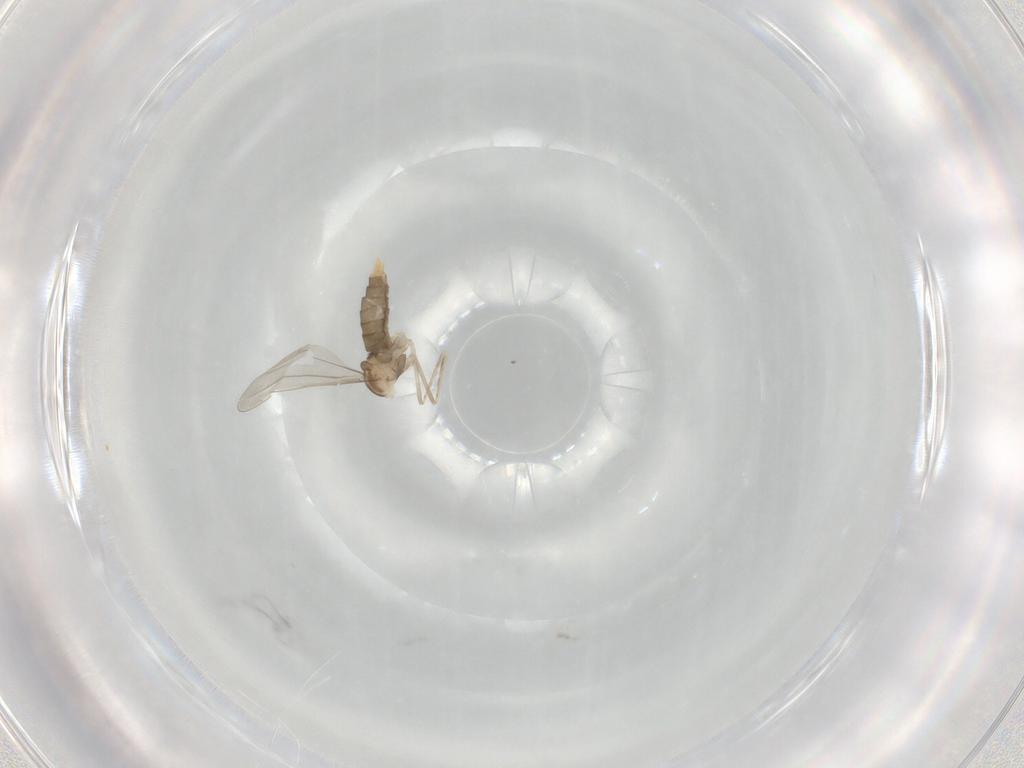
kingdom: Animalia
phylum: Arthropoda
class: Insecta
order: Diptera
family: Cecidomyiidae
